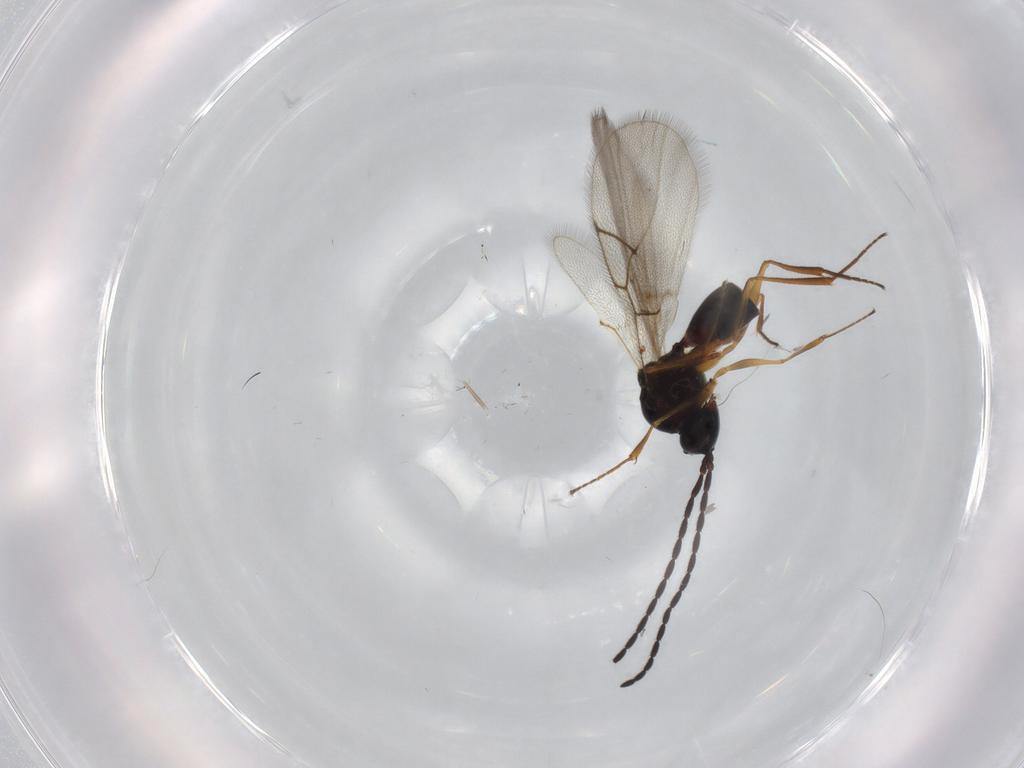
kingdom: Animalia
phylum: Arthropoda
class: Insecta
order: Hymenoptera
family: Figitidae
